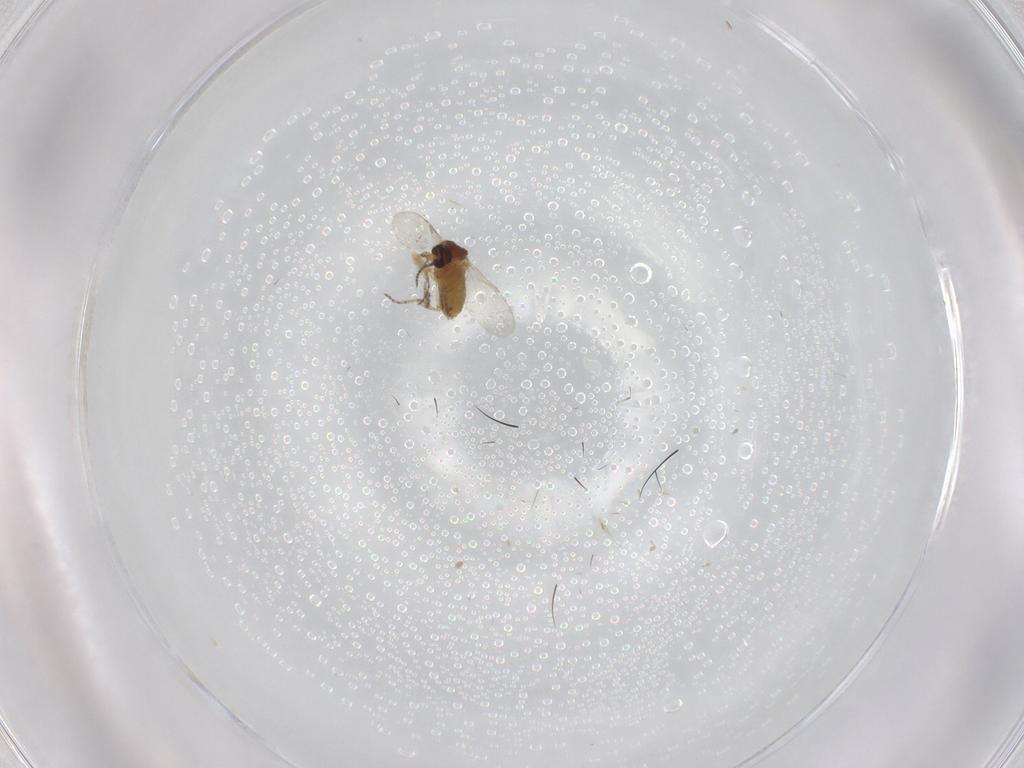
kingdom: Animalia
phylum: Arthropoda
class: Insecta
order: Diptera
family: Ceratopogonidae
